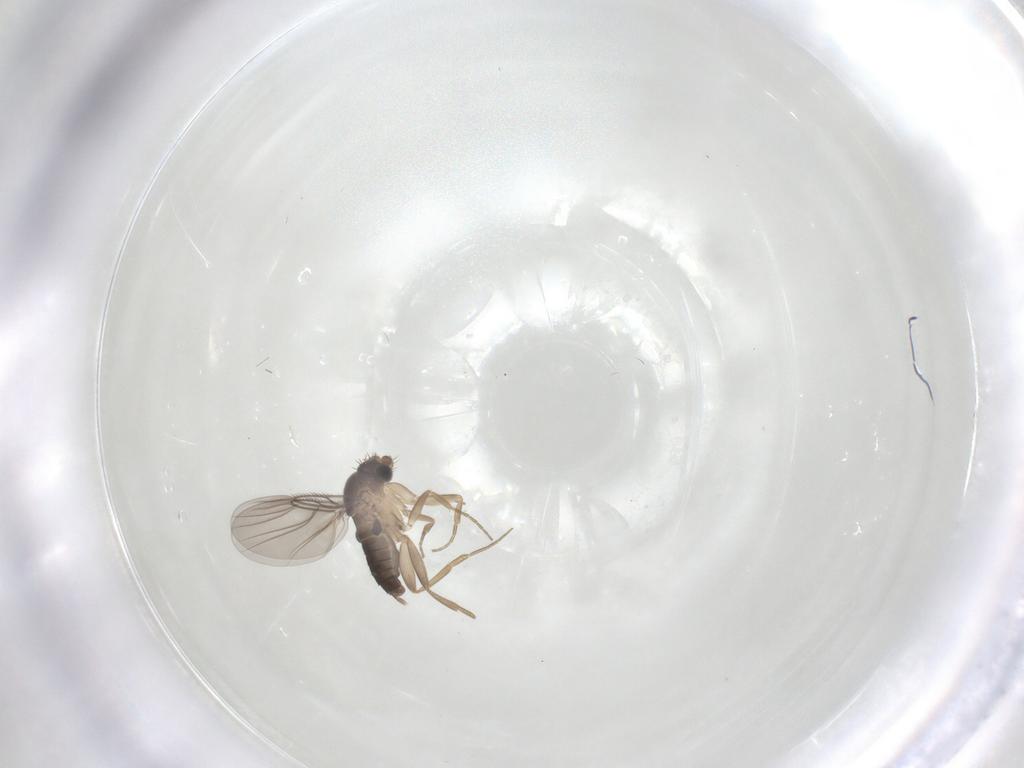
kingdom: Animalia
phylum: Arthropoda
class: Insecta
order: Diptera
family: Phoridae
